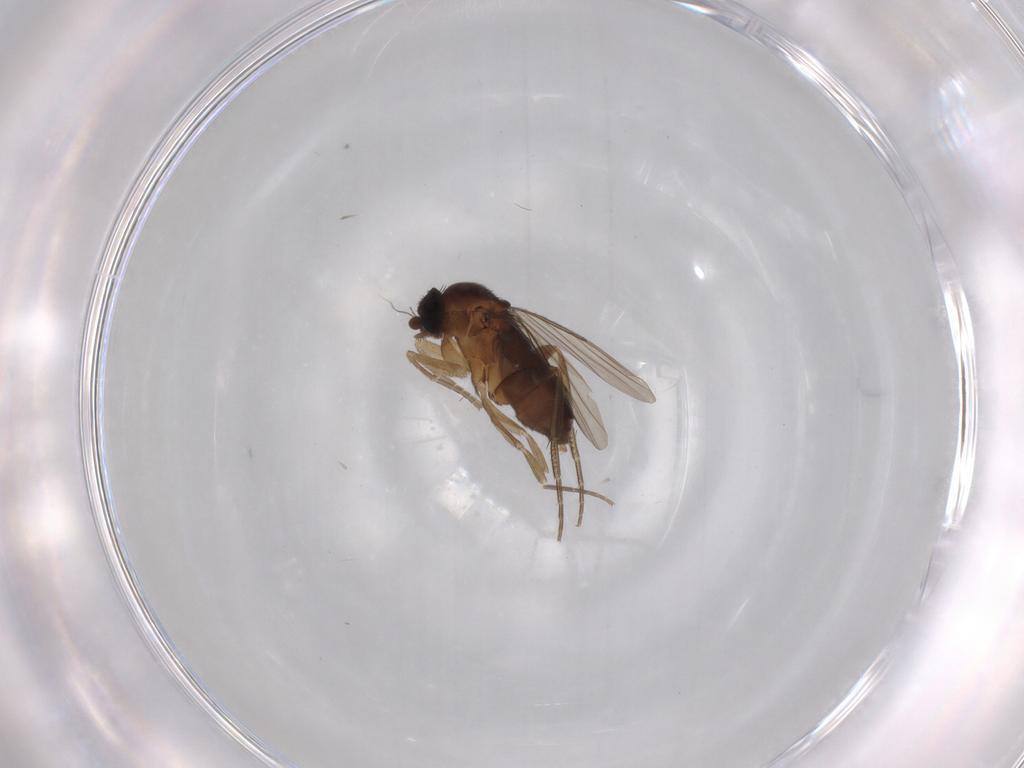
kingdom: Animalia
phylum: Arthropoda
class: Insecta
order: Diptera
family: Phoridae
